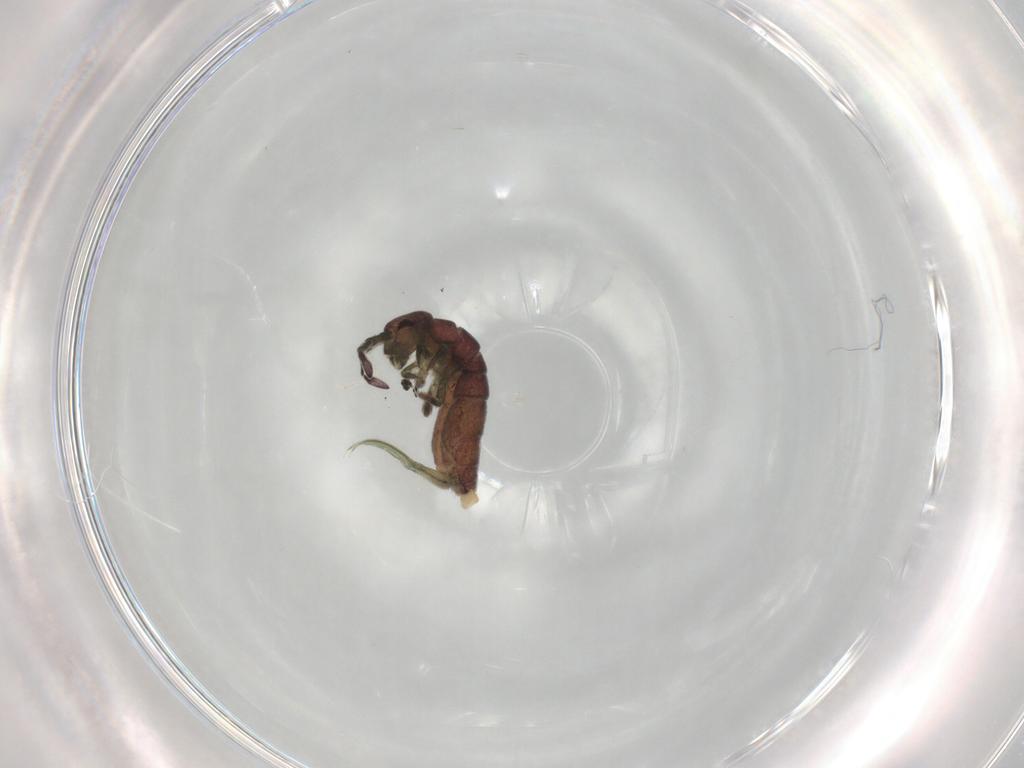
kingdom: Animalia
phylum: Arthropoda
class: Collembola
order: Entomobryomorpha
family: Isotomidae
